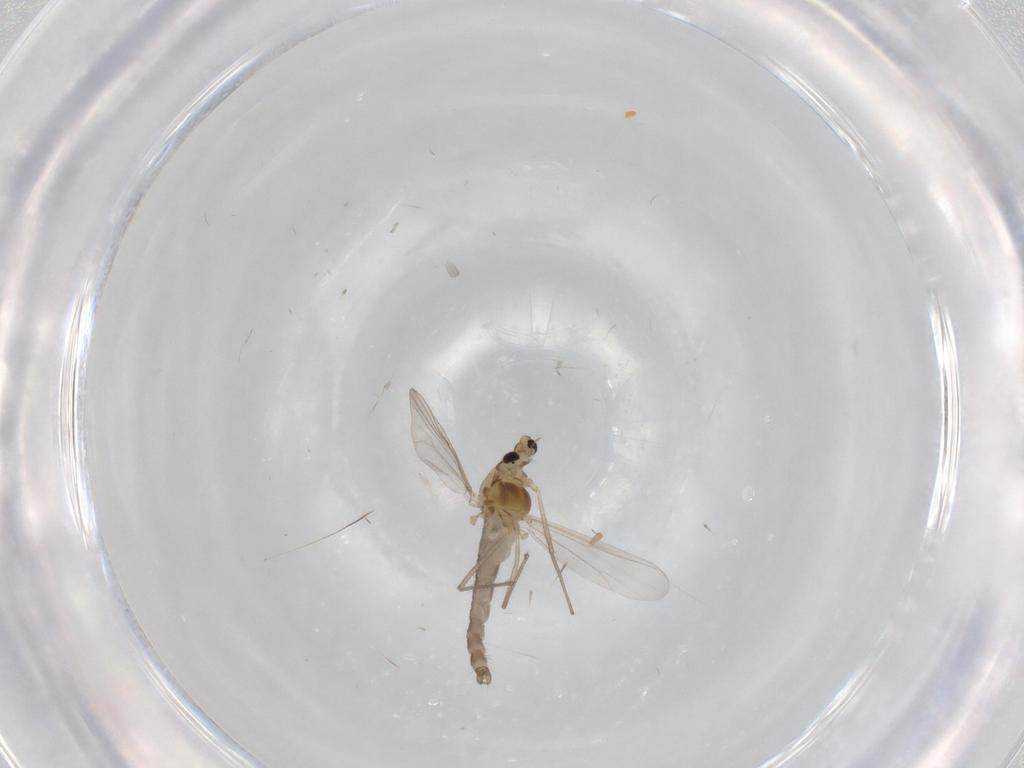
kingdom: Animalia
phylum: Arthropoda
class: Insecta
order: Diptera
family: Chironomidae
